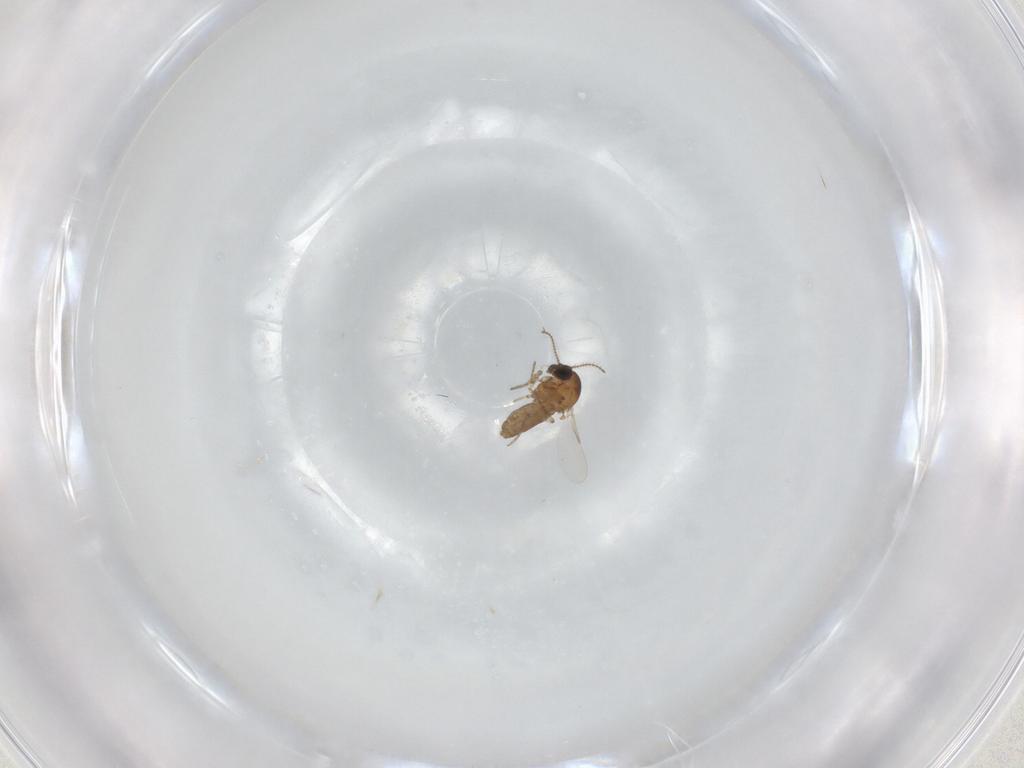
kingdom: Animalia
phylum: Arthropoda
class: Insecta
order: Diptera
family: Ceratopogonidae
